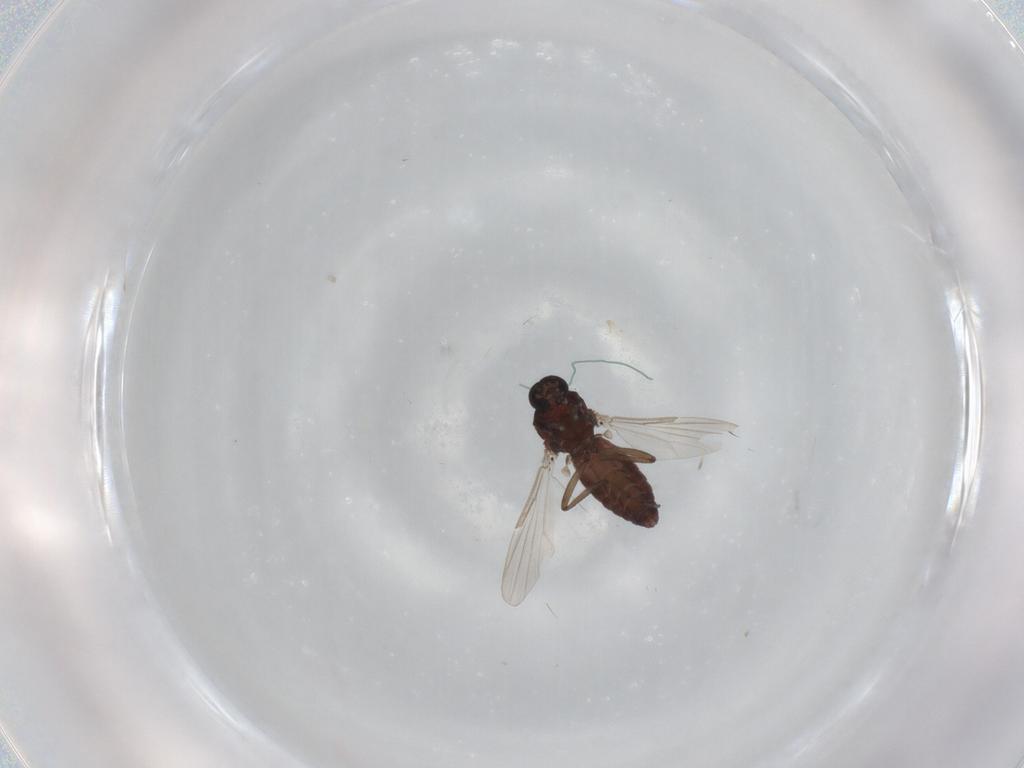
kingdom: Animalia
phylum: Arthropoda
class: Insecta
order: Diptera
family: Ceratopogonidae
